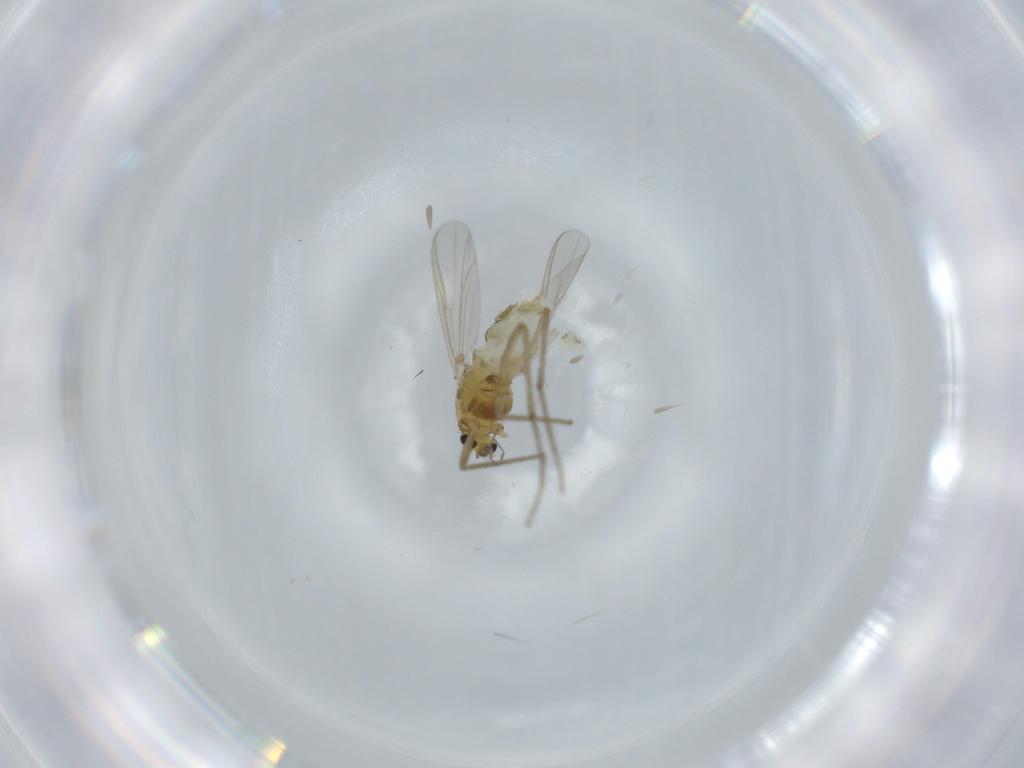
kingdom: Animalia
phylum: Arthropoda
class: Insecta
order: Diptera
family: Chironomidae
